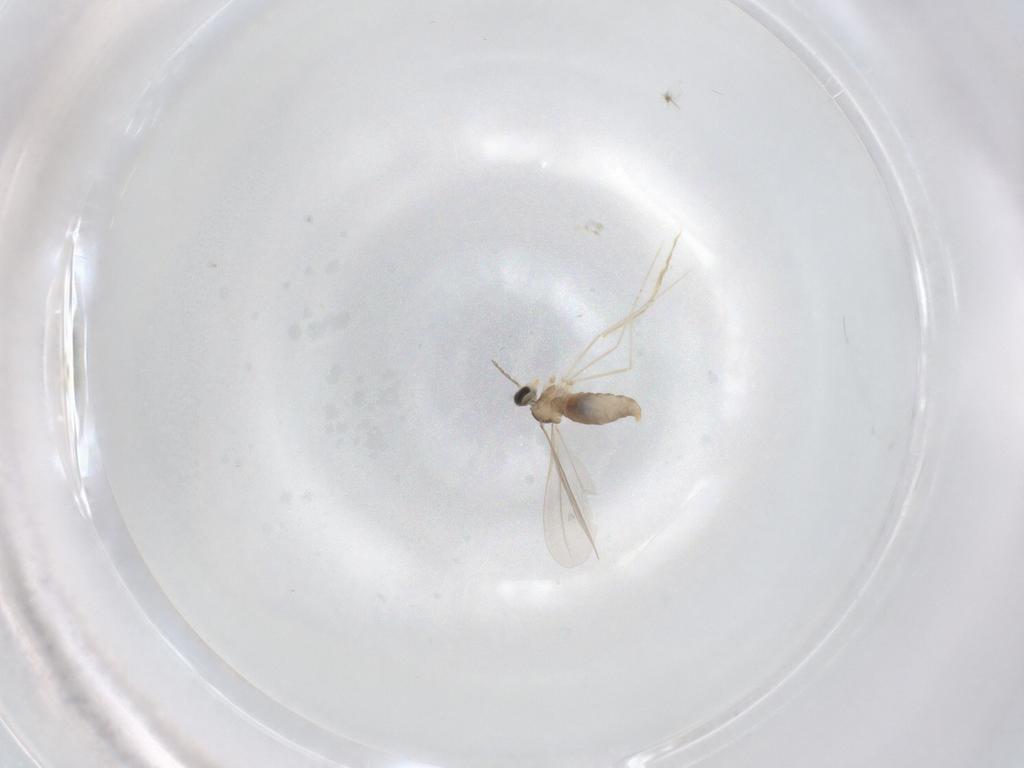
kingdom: Animalia
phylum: Arthropoda
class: Insecta
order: Diptera
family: Cecidomyiidae
